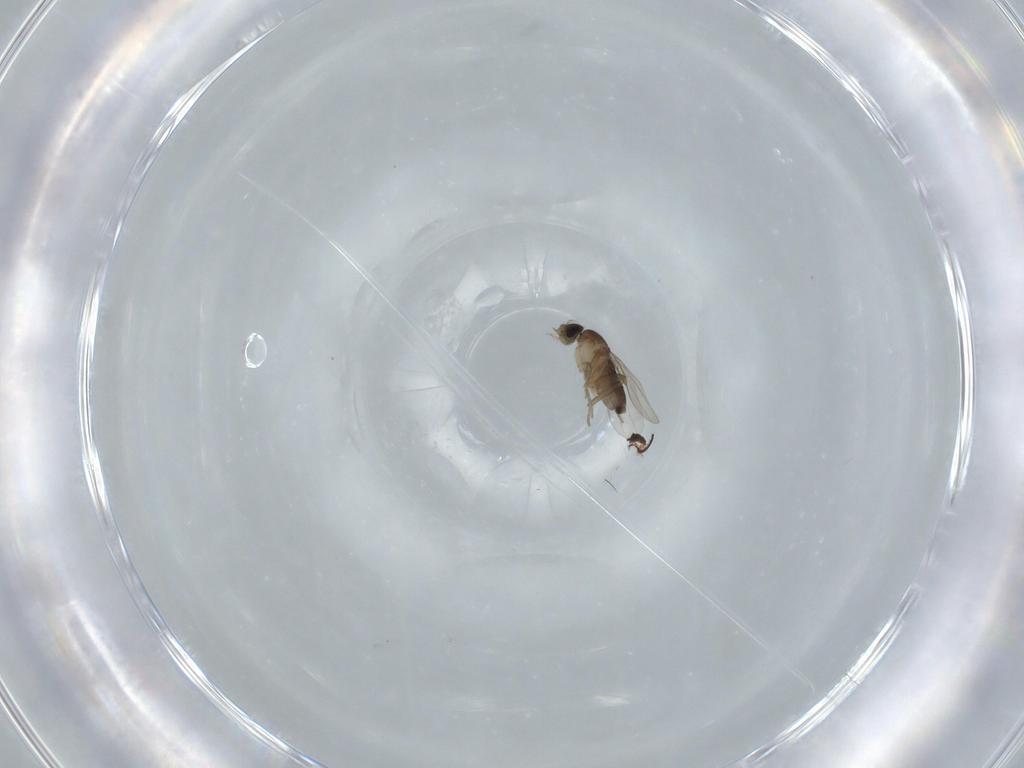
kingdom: Animalia
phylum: Arthropoda
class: Insecta
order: Diptera
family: Phoridae
